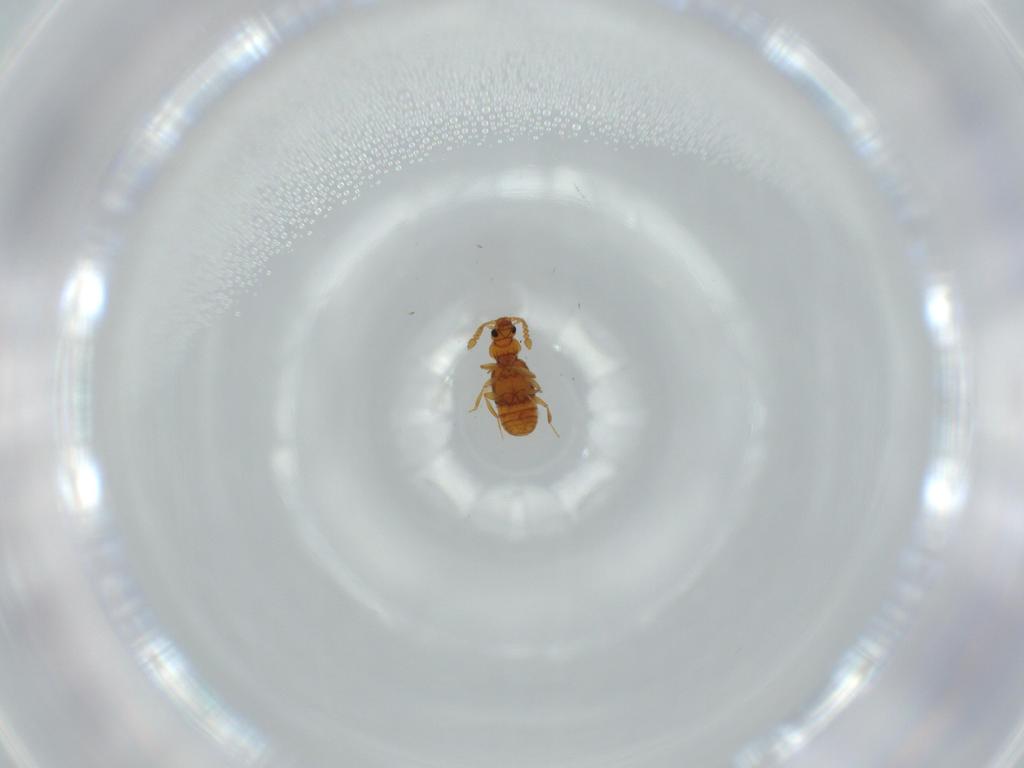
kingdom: Animalia
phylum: Arthropoda
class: Insecta
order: Coleoptera
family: Staphylinidae
